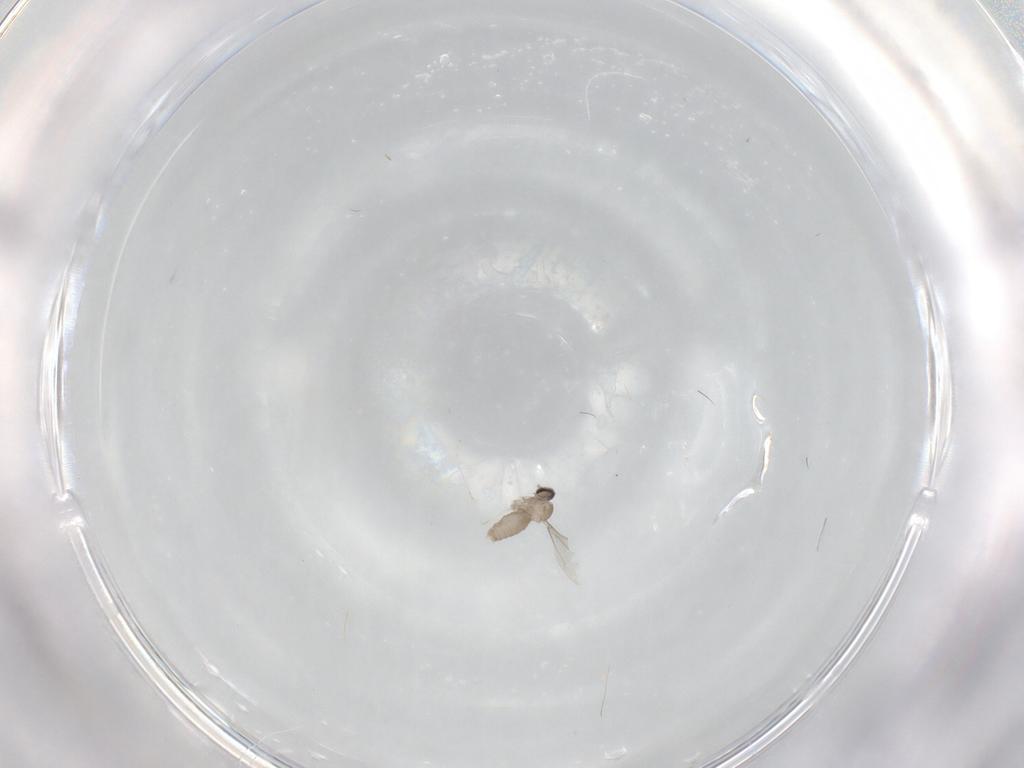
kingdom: Animalia
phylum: Arthropoda
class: Insecta
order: Diptera
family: Cecidomyiidae
